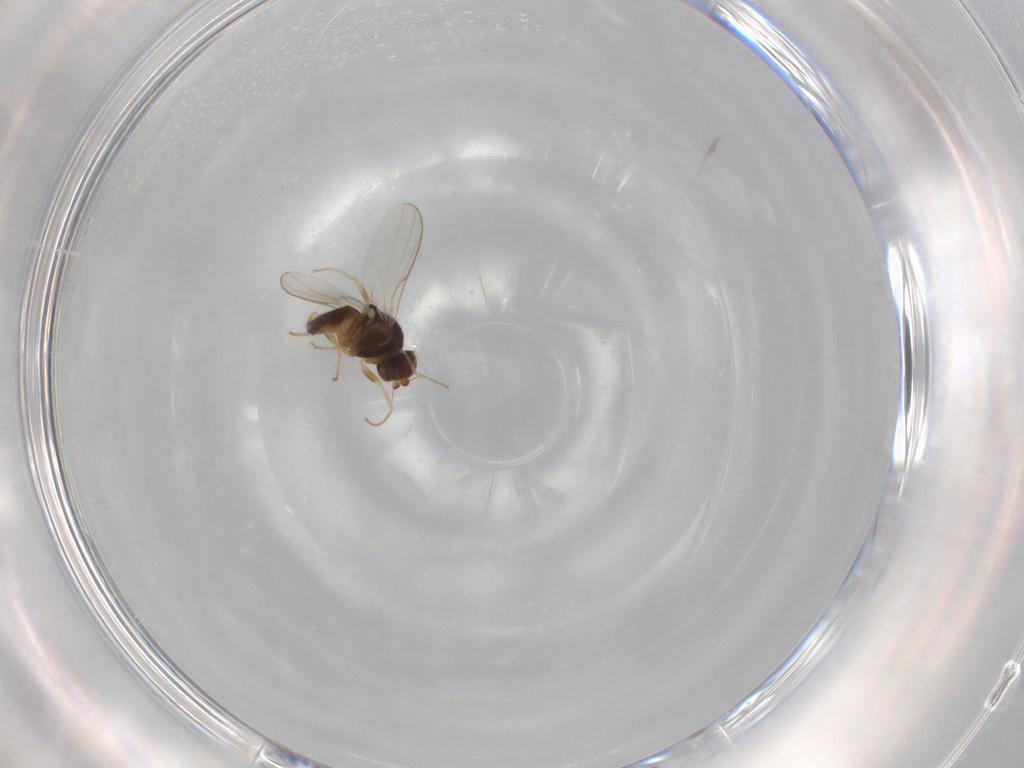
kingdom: Animalia
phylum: Arthropoda
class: Insecta
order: Diptera
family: Chloropidae
